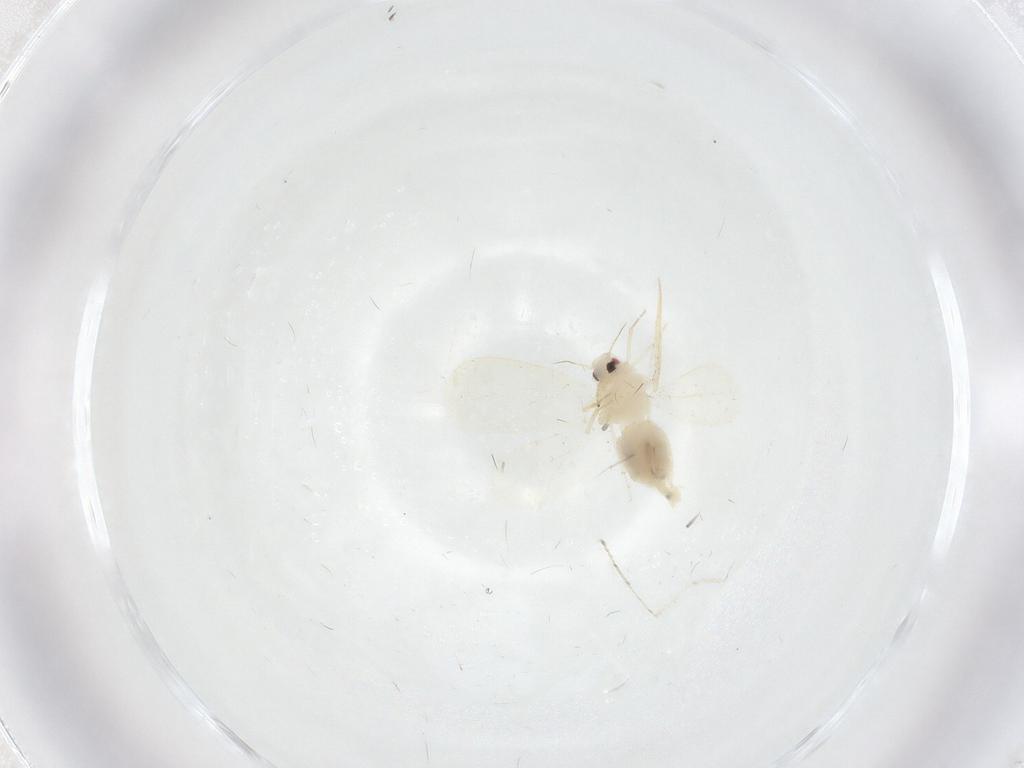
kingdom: Animalia
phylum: Arthropoda
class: Insecta
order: Hemiptera
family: Aleyrodidae
